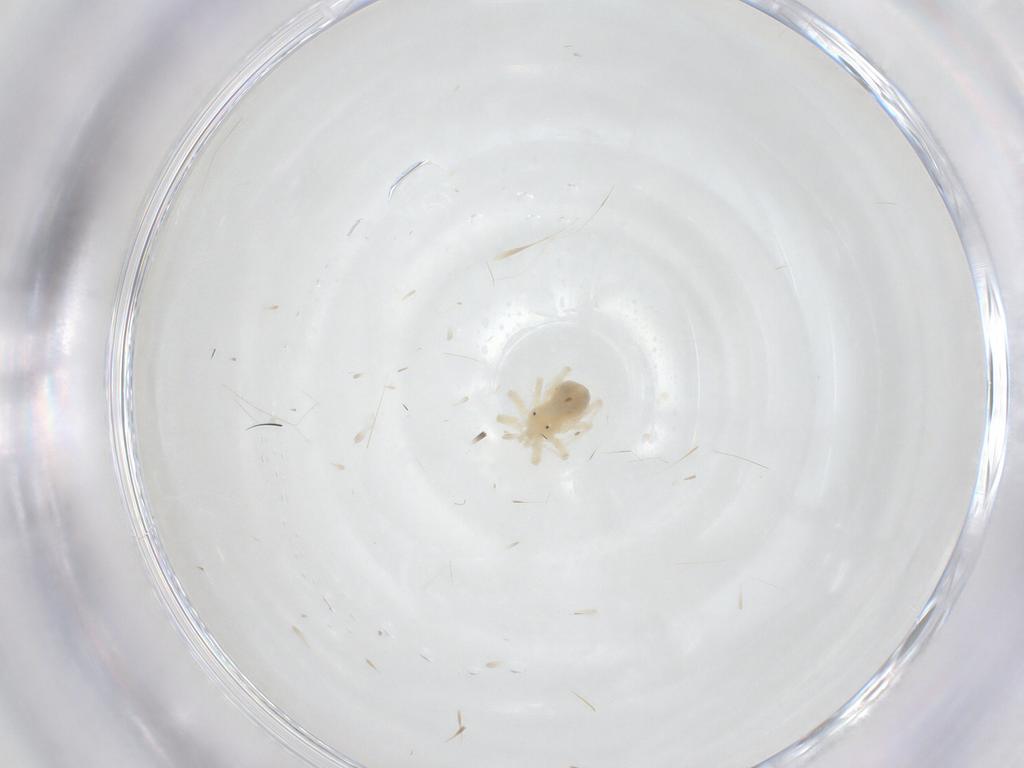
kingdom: Animalia
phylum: Arthropoda
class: Arachnida
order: Trombidiformes
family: Anystidae
